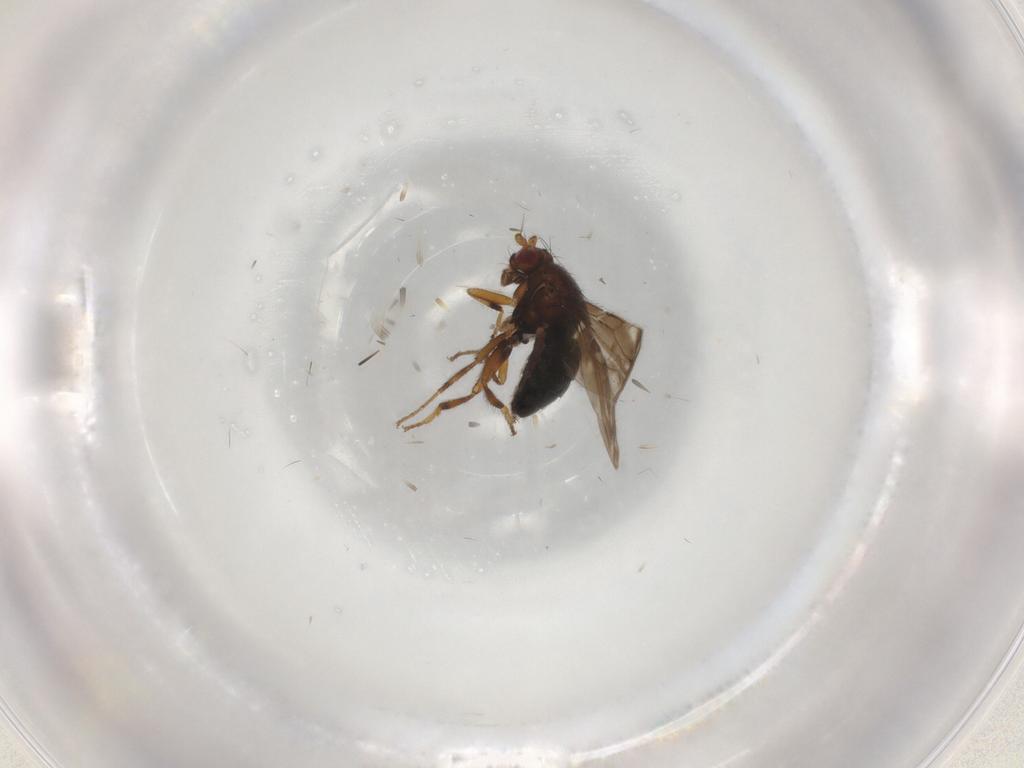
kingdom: Animalia
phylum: Arthropoda
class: Insecta
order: Diptera
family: Sphaeroceridae
